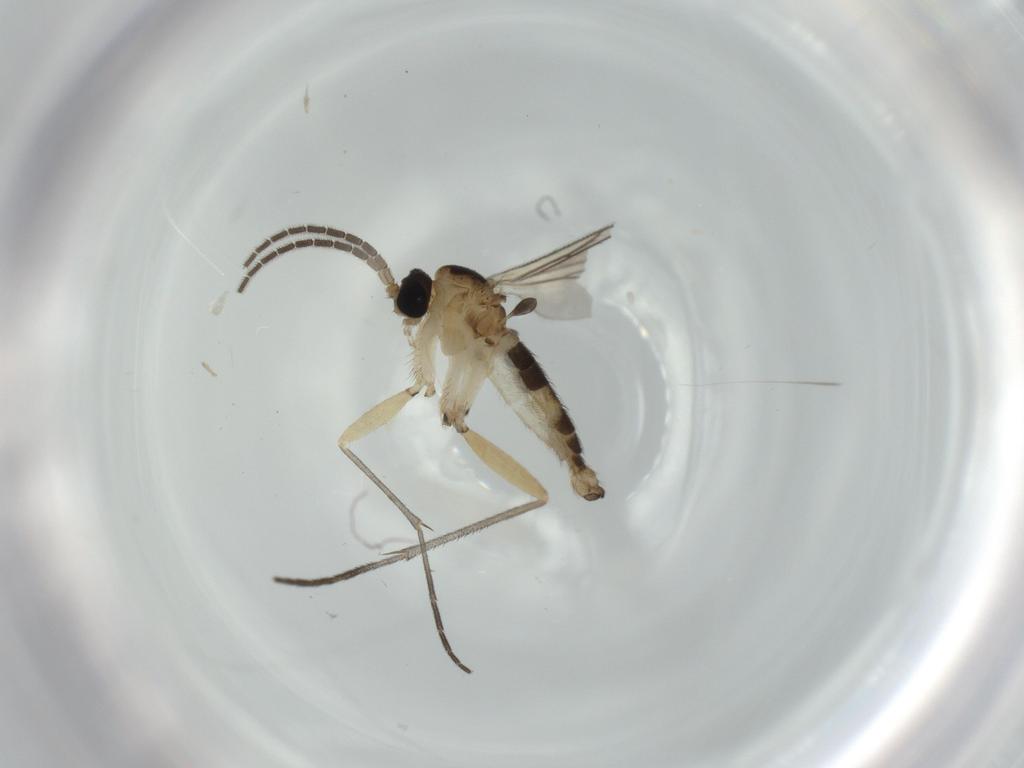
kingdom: Animalia
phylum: Arthropoda
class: Insecta
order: Diptera
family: Sciaridae
